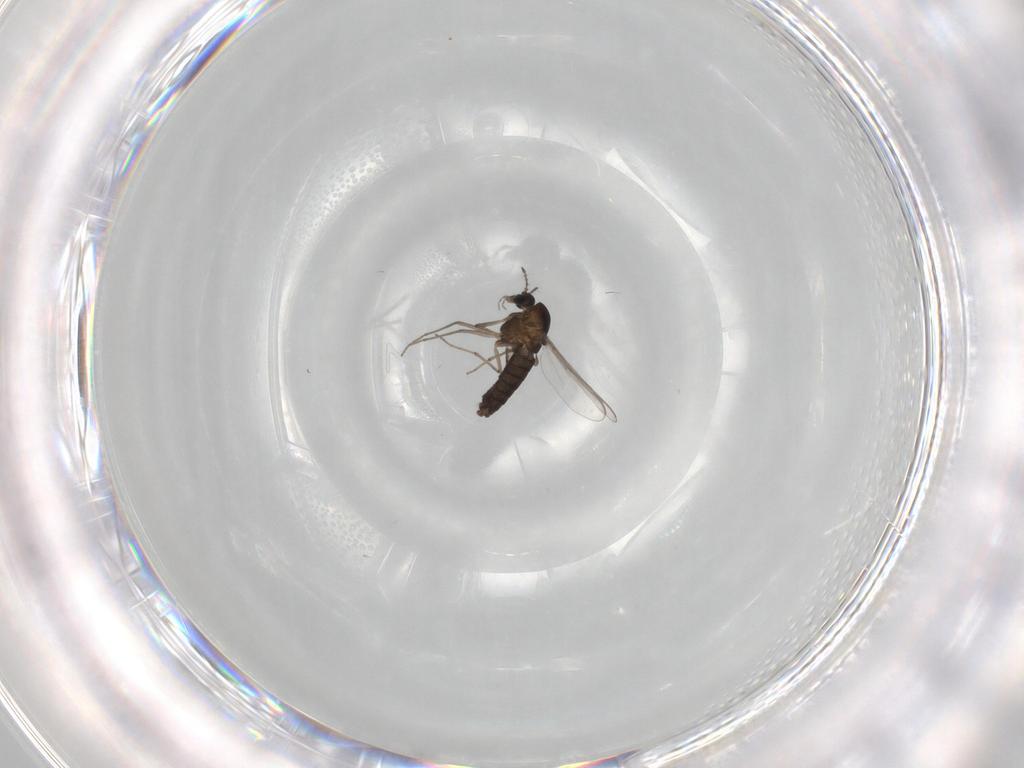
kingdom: Animalia
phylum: Arthropoda
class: Insecta
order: Diptera
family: Chironomidae
